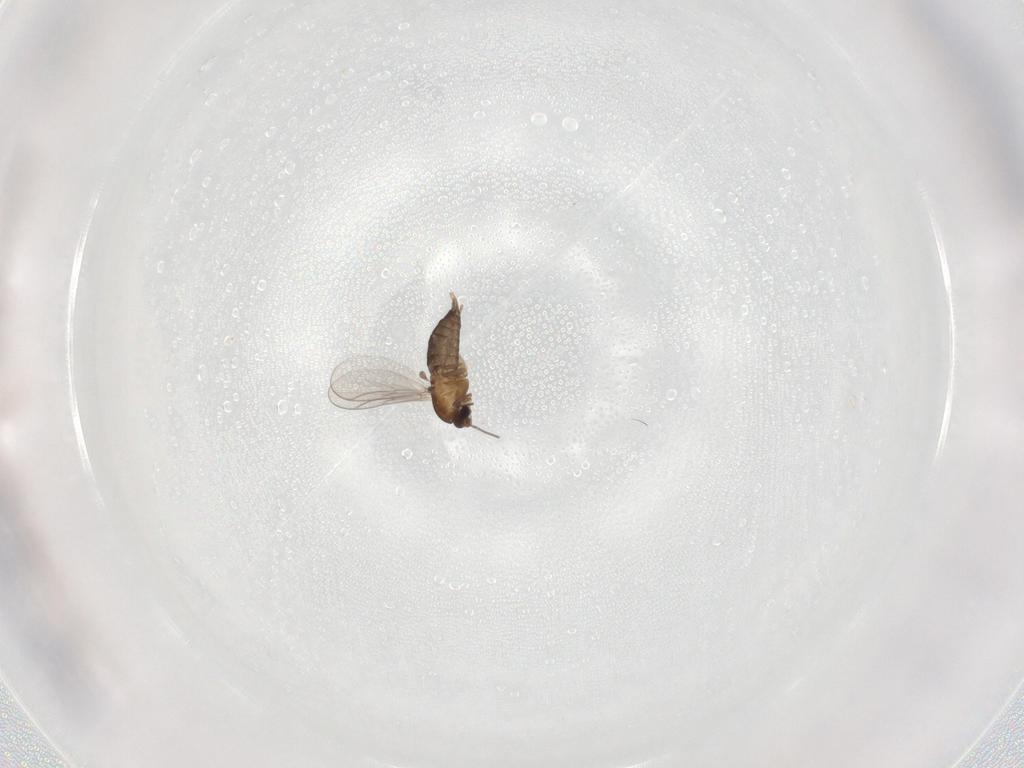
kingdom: Animalia
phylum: Arthropoda
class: Insecta
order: Diptera
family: Chironomidae
